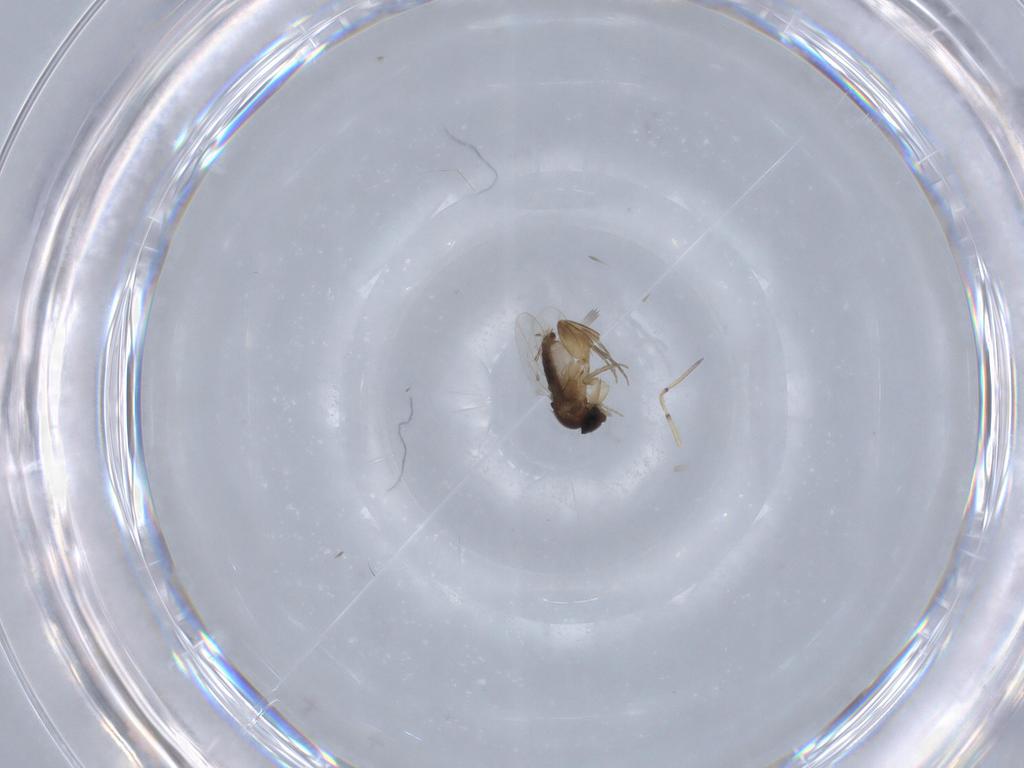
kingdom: Animalia
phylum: Arthropoda
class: Insecta
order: Diptera
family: Phoridae
